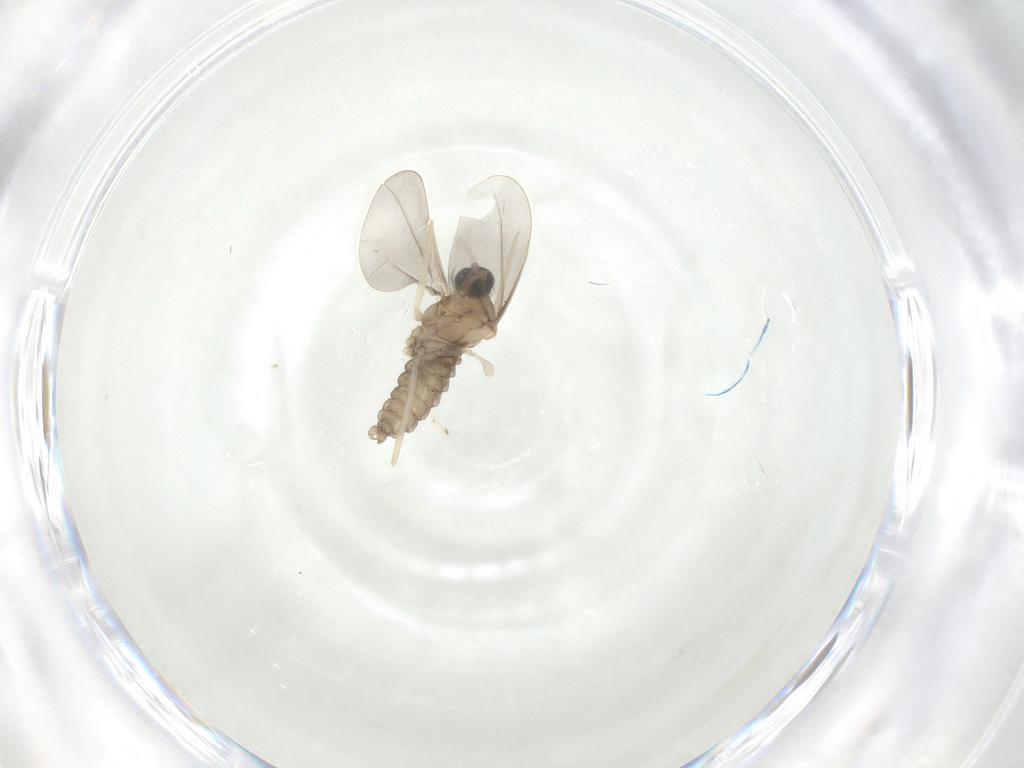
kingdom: Animalia
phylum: Arthropoda
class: Insecta
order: Diptera
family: Cecidomyiidae
